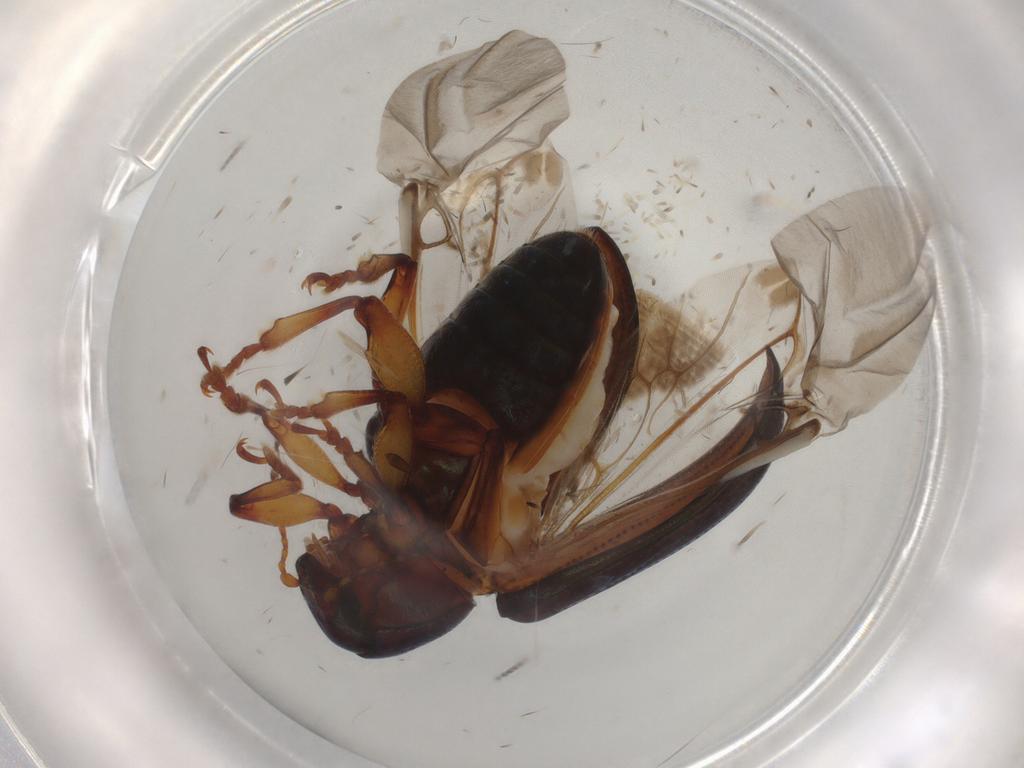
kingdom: Animalia
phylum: Arthropoda
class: Insecta
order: Coleoptera
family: Chrysomelidae
